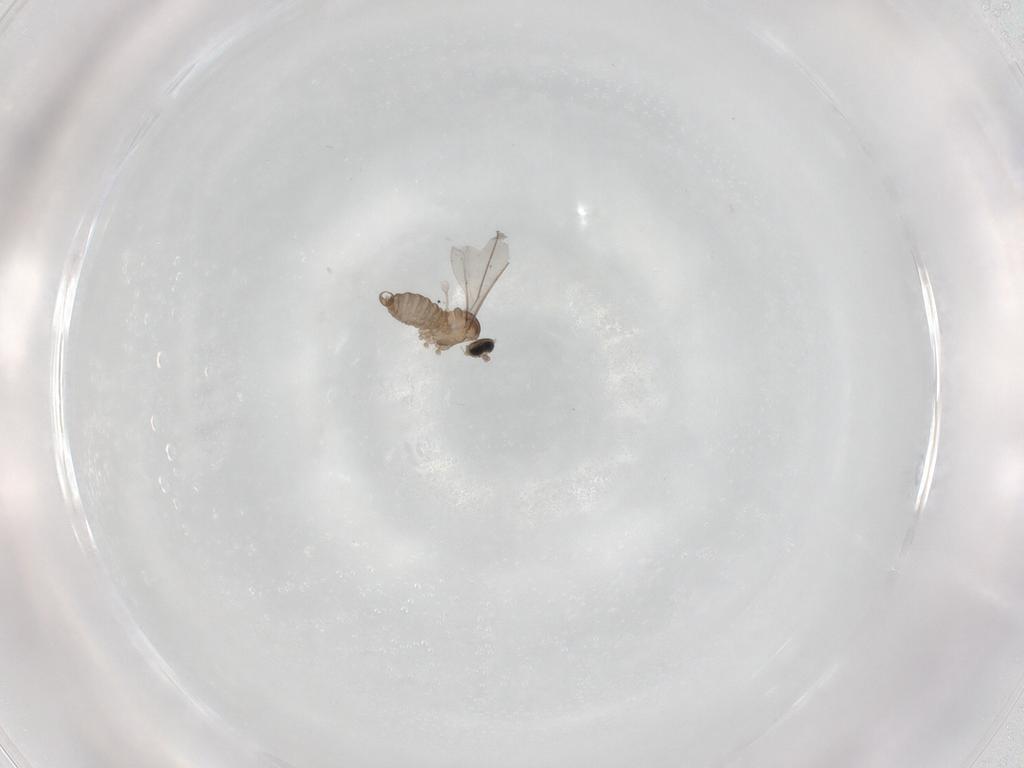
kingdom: Animalia
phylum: Arthropoda
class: Insecta
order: Diptera
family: Cecidomyiidae
